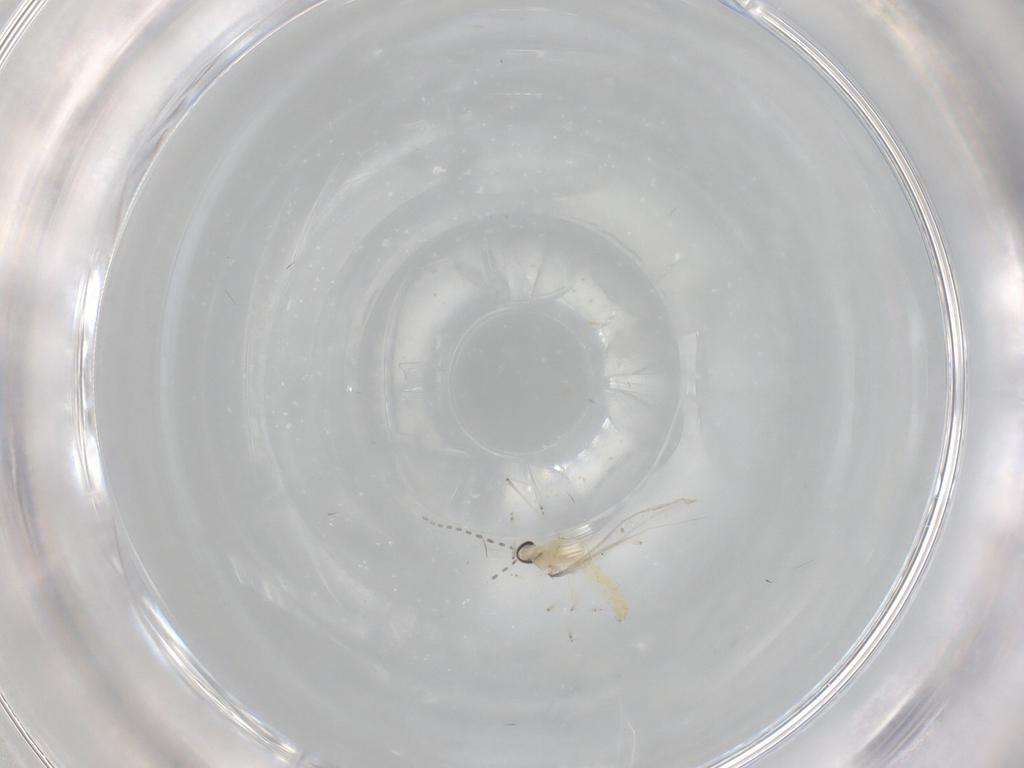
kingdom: Animalia
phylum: Arthropoda
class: Insecta
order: Diptera
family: Cecidomyiidae
